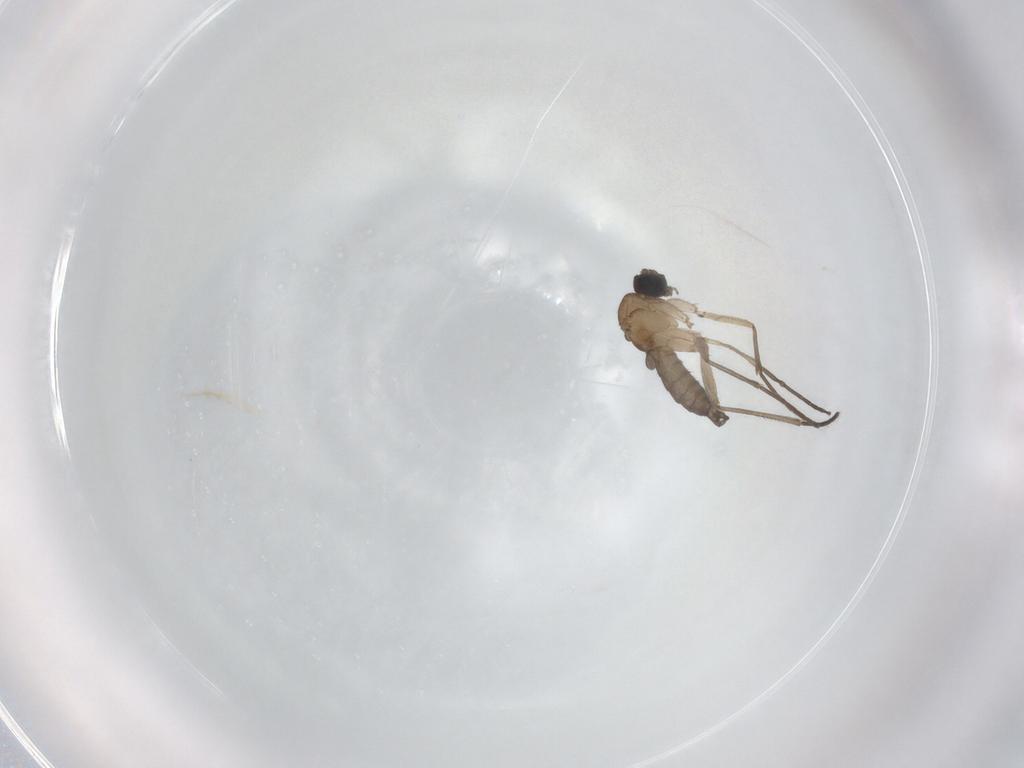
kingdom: Animalia
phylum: Arthropoda
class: Insecta
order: Diptera
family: Sciaridae
